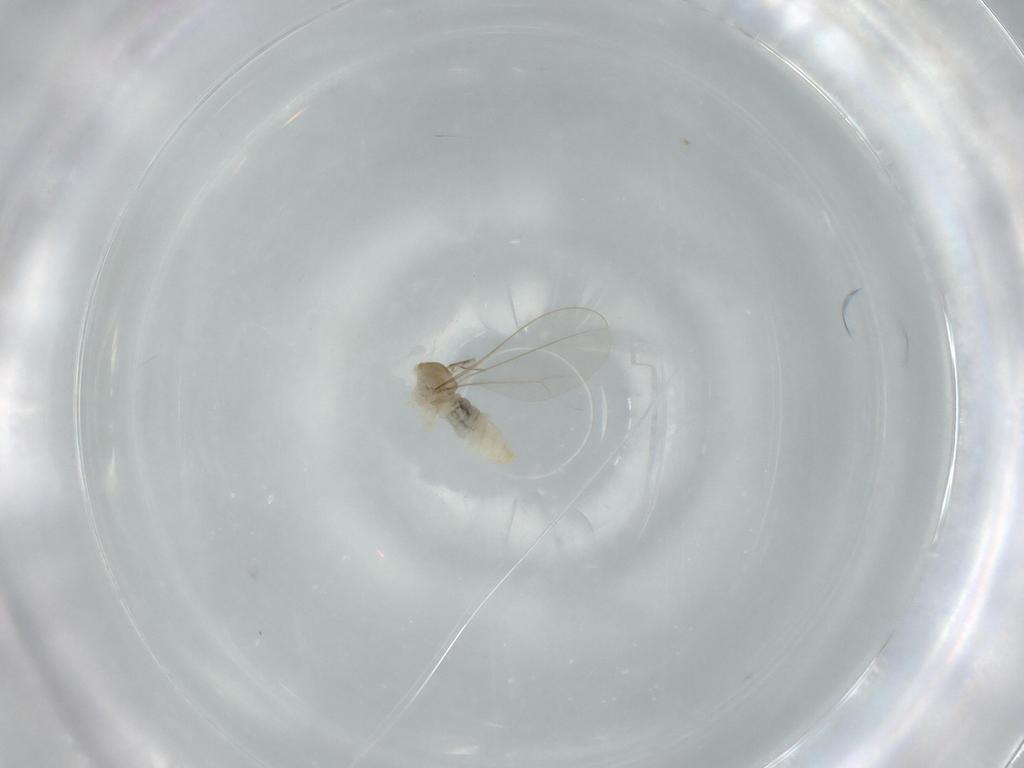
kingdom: Animalia
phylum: Arthropoda
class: Insecta
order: Diptera
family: Cecidomyiidae
